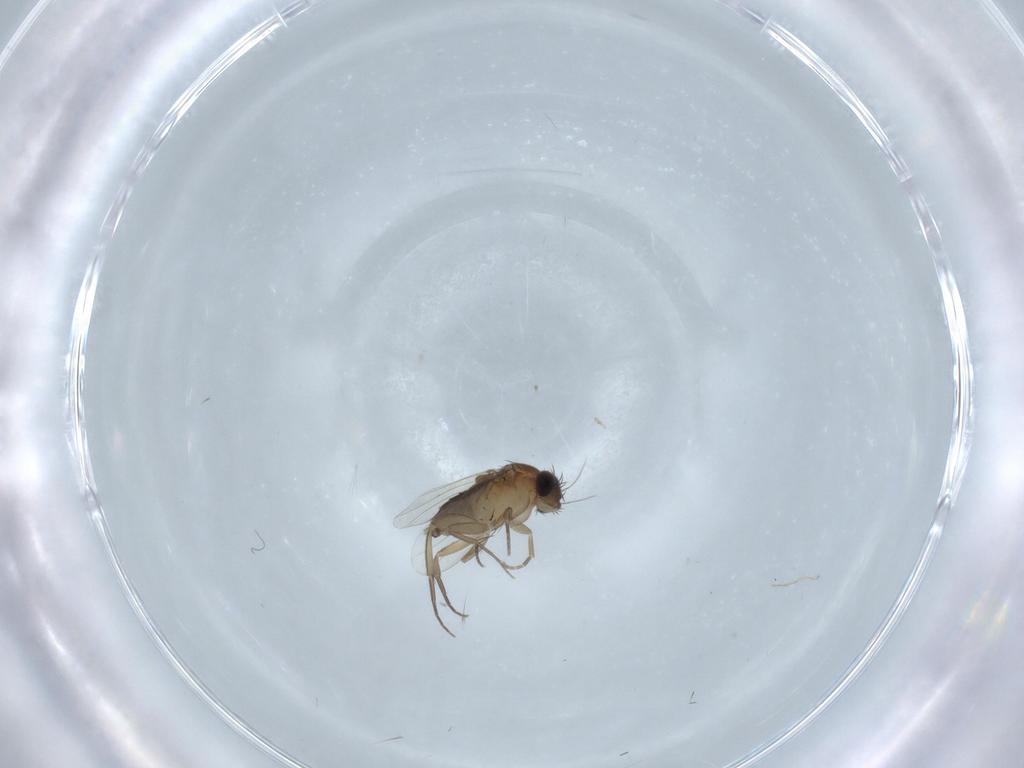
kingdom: Animalia
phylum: Arthropoda
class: Insecta
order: Diptera
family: Phoridae
